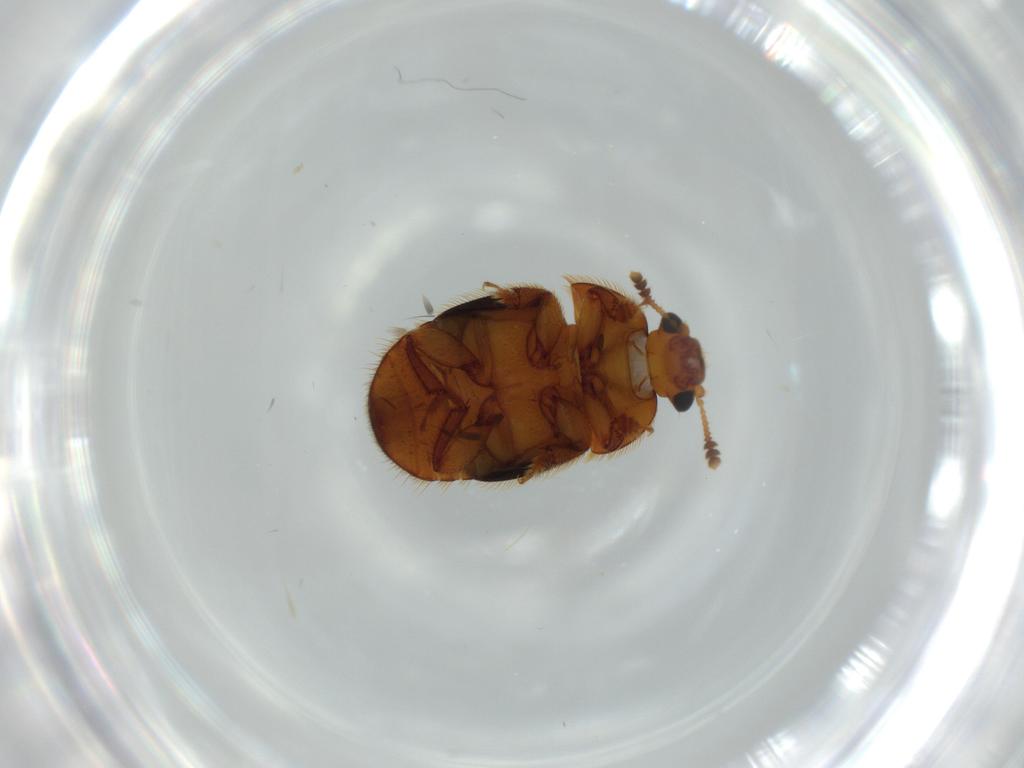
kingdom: Animalia
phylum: Arthropoda
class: Insecta
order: Coleoptera
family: Nitidulidae
